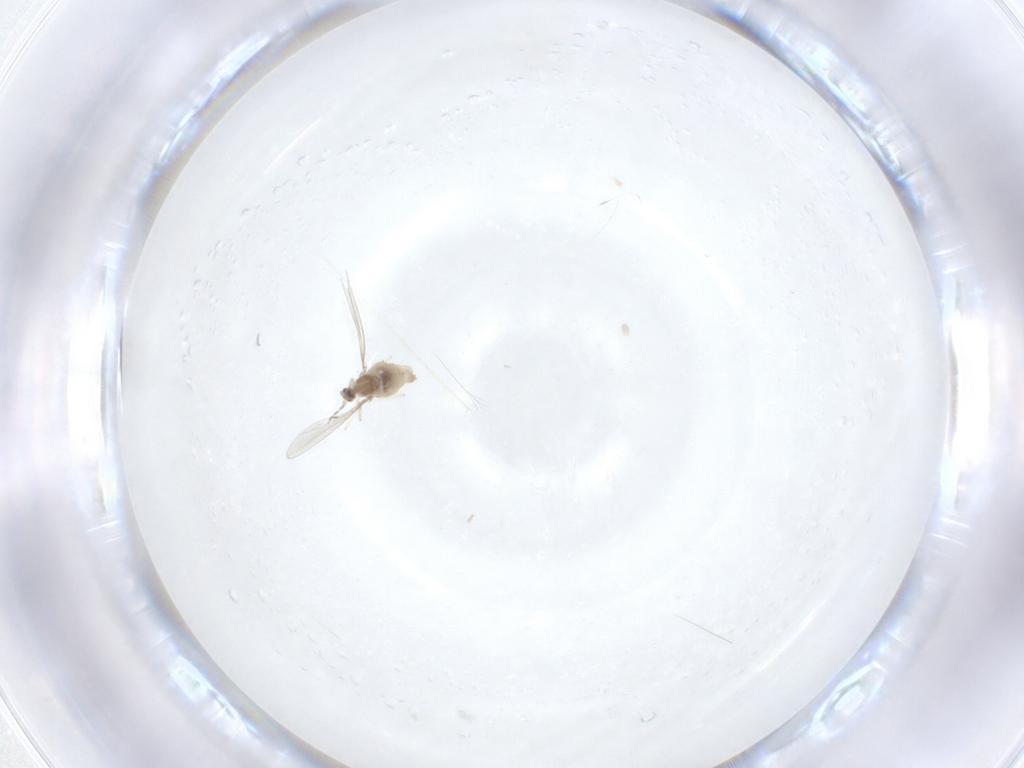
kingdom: Animalia
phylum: Arthropoda
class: Insecta
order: Diptera
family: Cecidomyiidae
